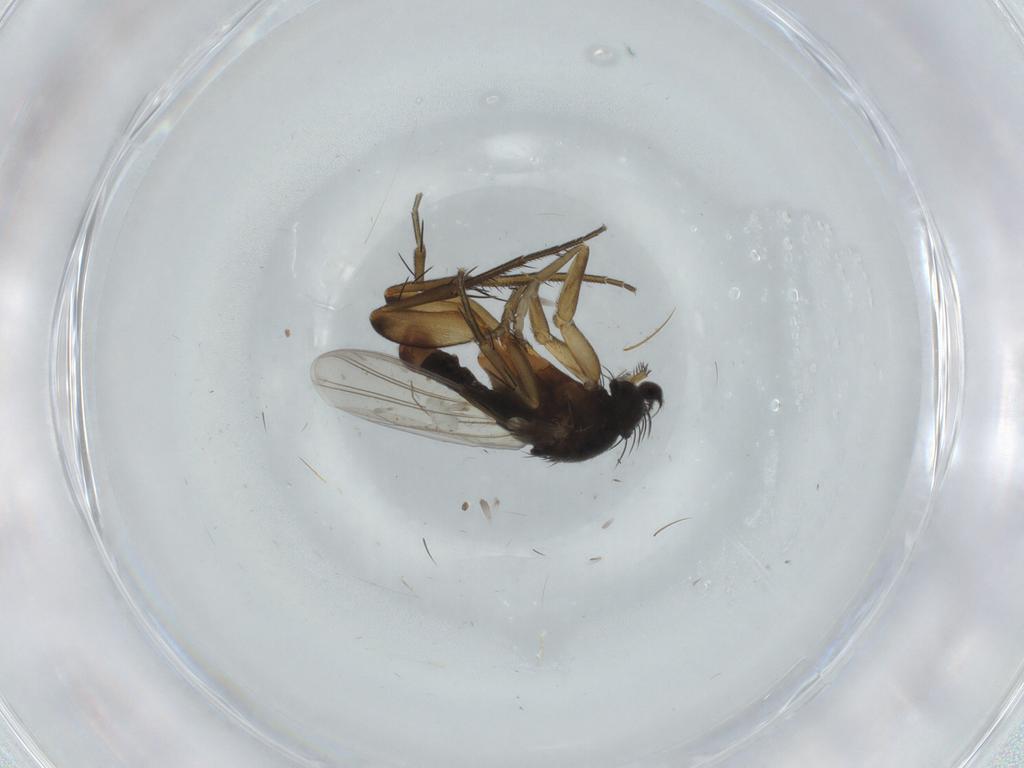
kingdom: Animalia
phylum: Arthropoda
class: Insecta
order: Diptera
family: Phoridae
